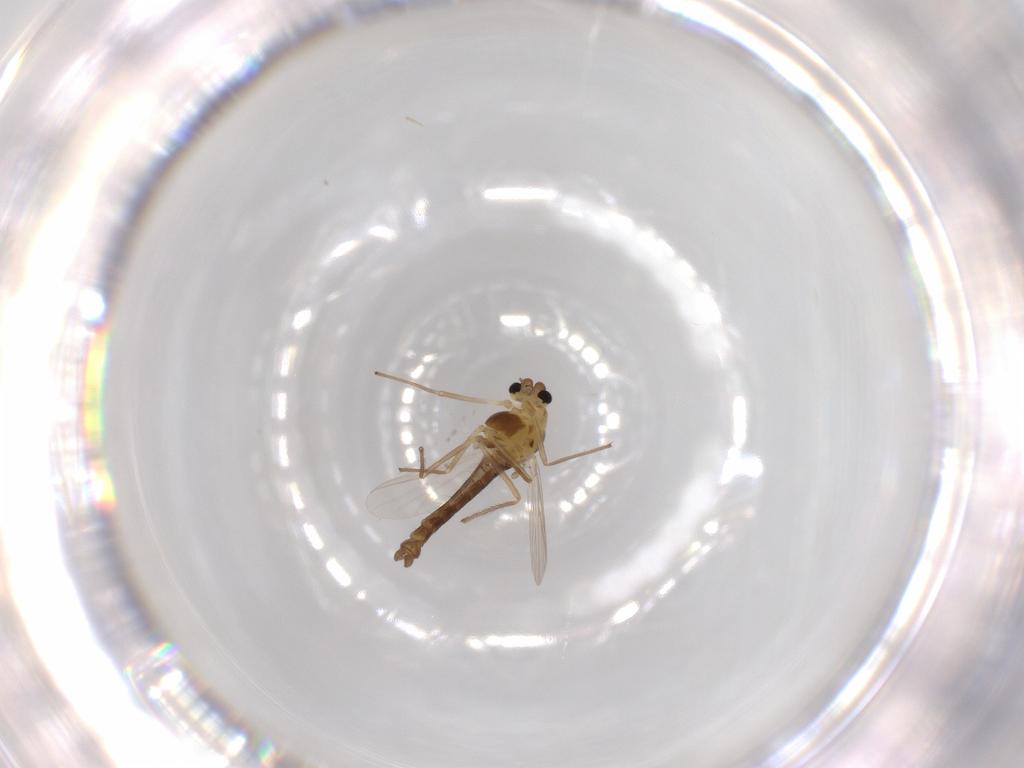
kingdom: Animalia
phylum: Arthropoda
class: Insecta
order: Diptera
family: Chironomidae
